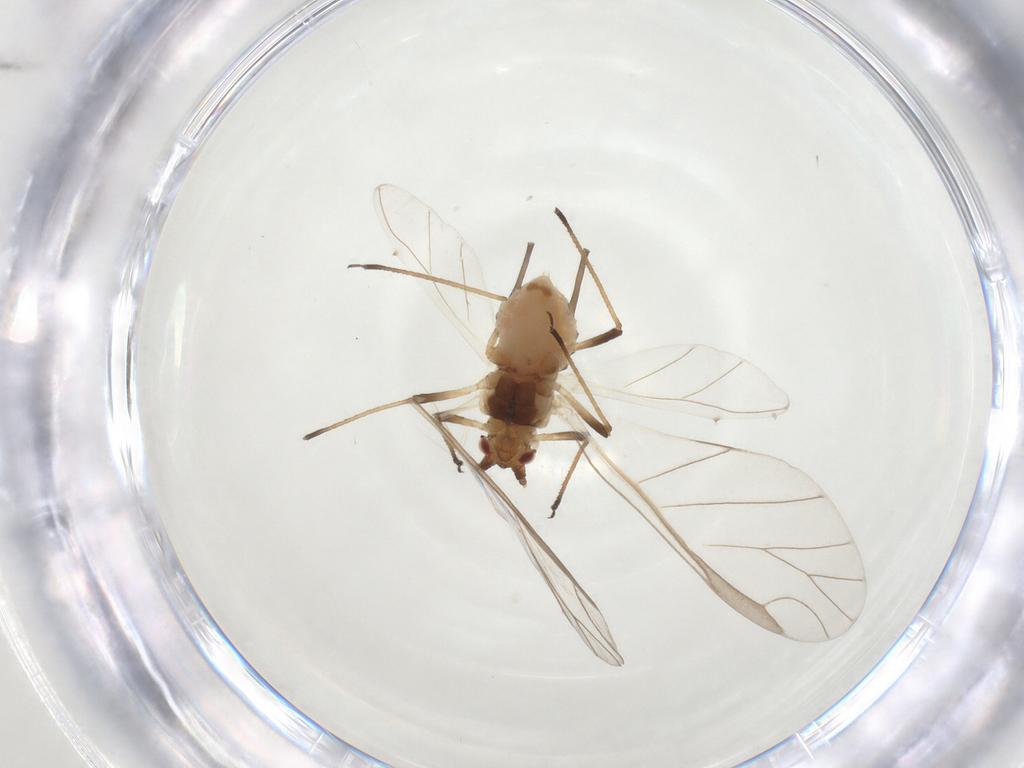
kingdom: Animalia
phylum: Arthropoda
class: Insecta
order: Hemiptera
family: Aphididae
